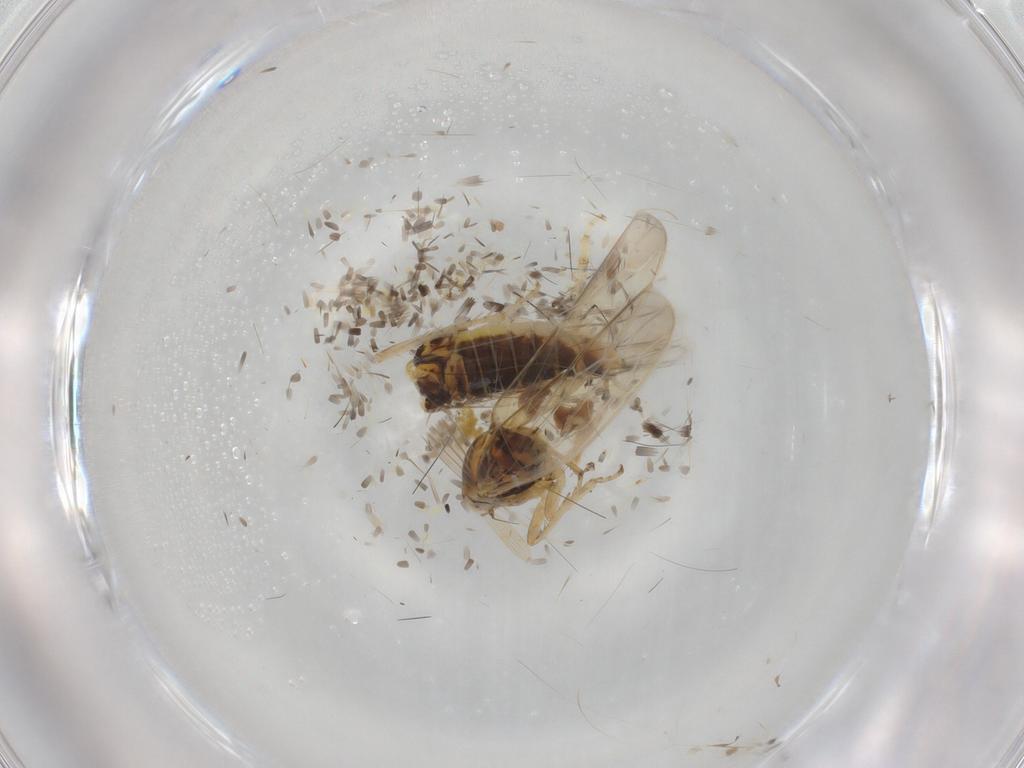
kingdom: Animalia
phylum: Arthropoda
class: Insecta
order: Hemiptera
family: Cicadellidae
